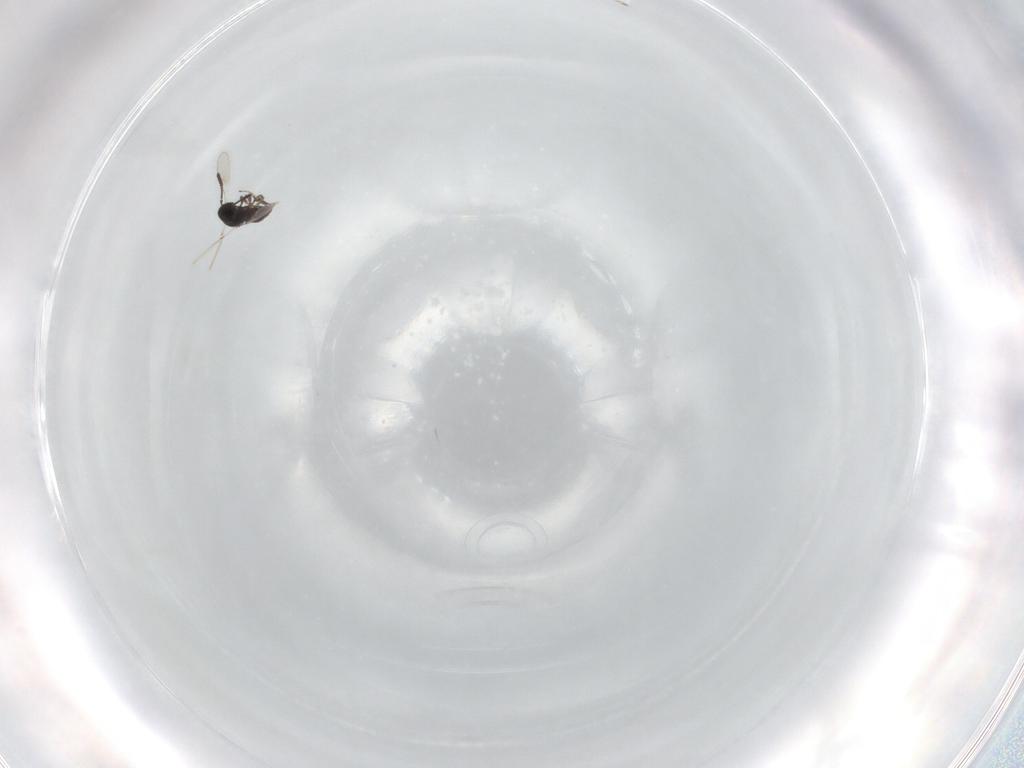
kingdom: Animalia
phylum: Arthropoda
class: Insecta
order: Hymenoptera
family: Scelionidae
